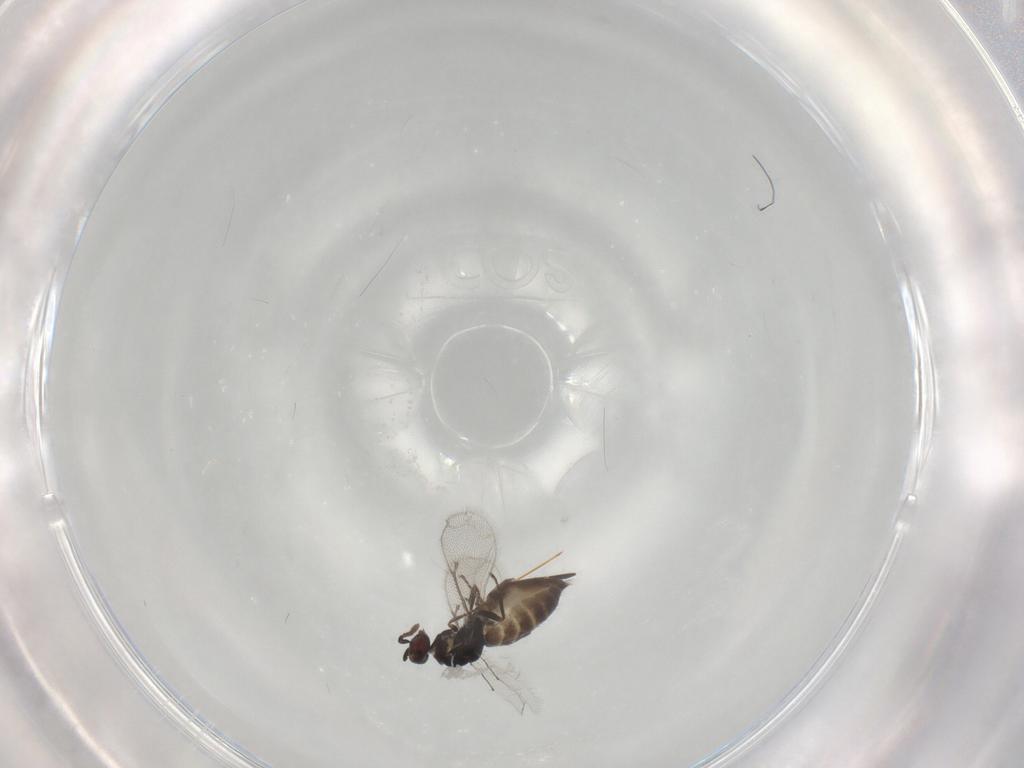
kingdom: Animalia
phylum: Arthropoda
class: Insecta
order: Hymenoptera
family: Eulophidae
